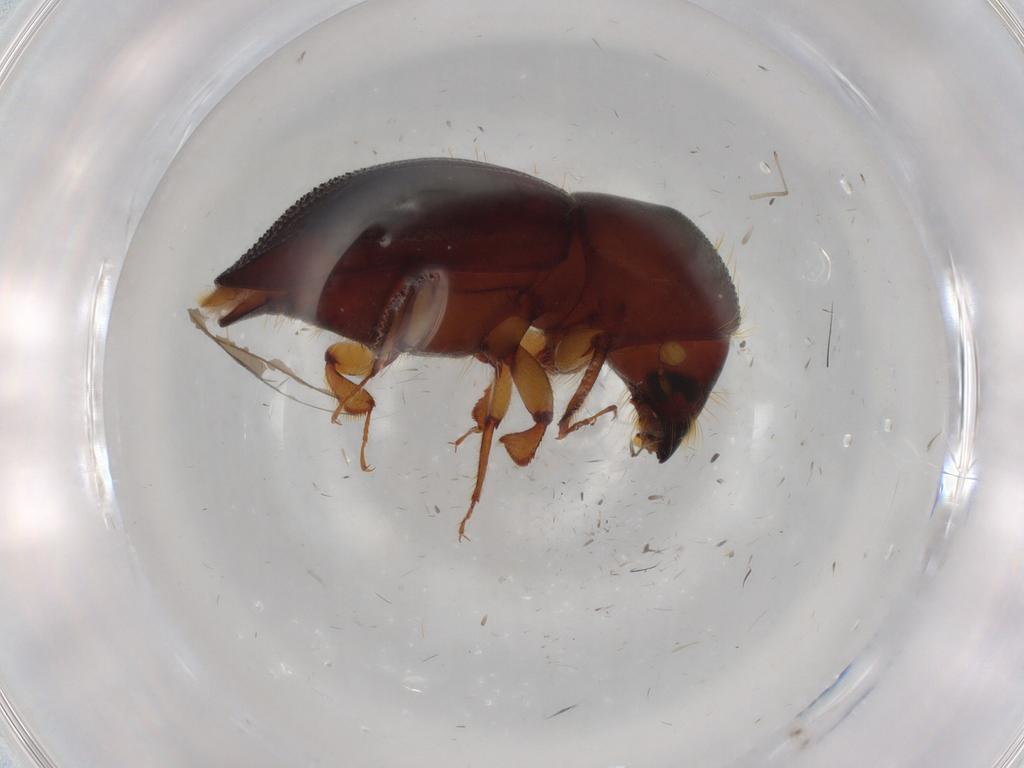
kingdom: Animalia
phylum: Arthropoda
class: Insecta
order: Coleoptera
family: Curculionidae
